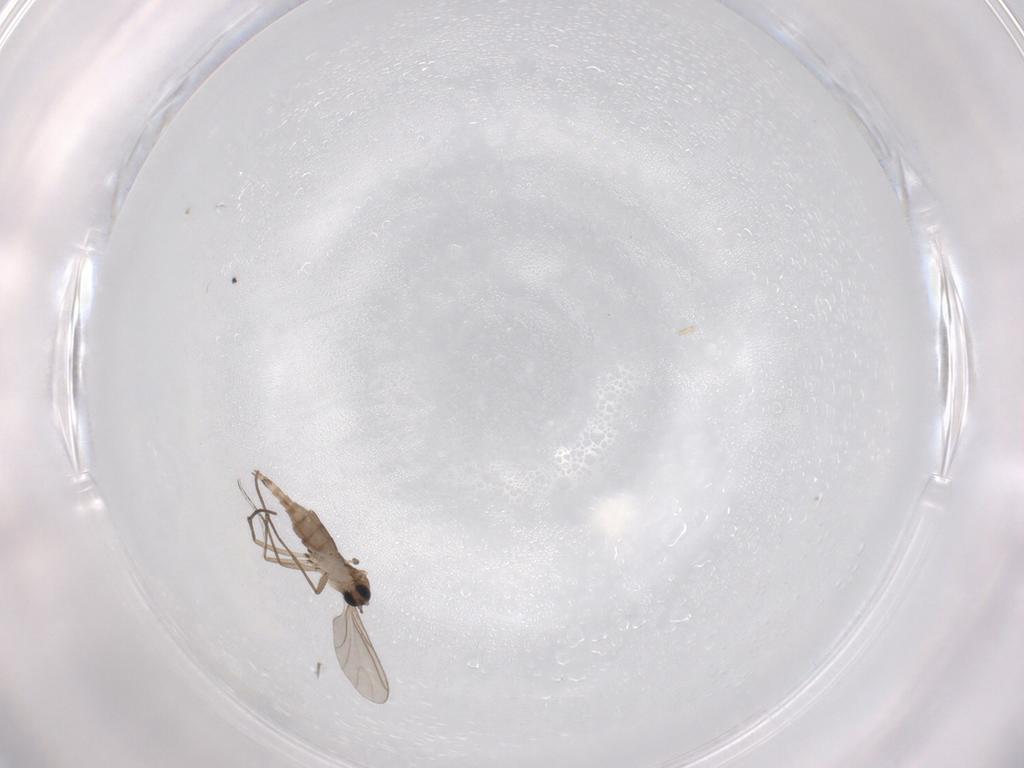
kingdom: Animalia
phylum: Arthropoda
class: Insecta
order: Diptera
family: Sciaridae
